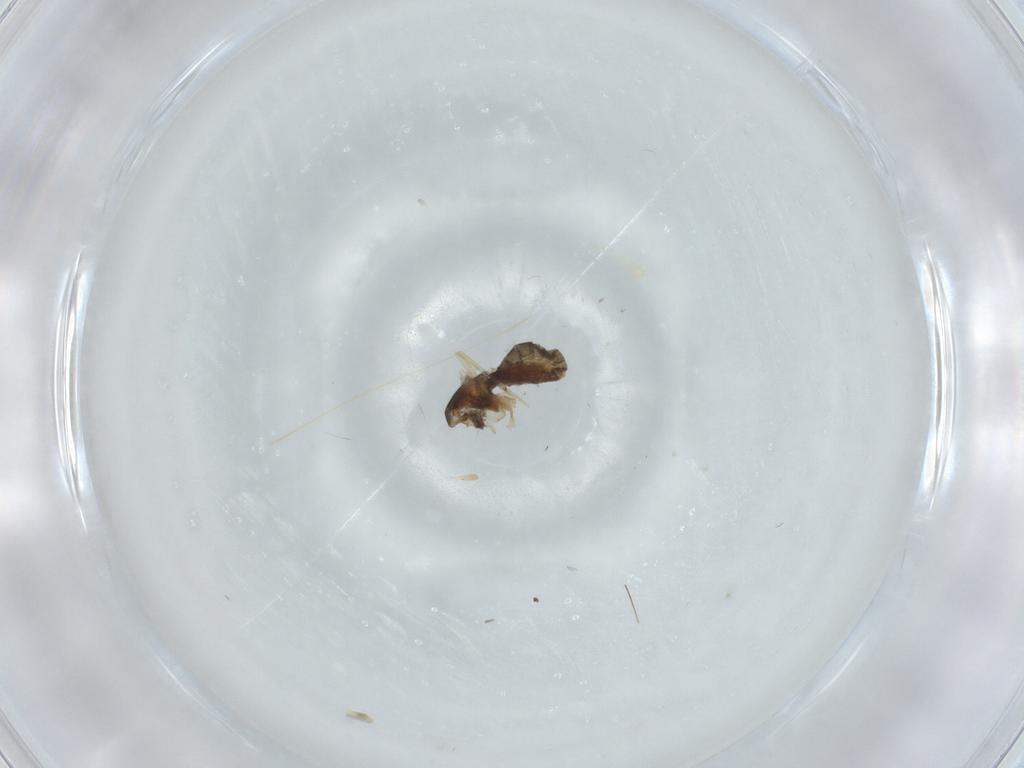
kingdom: Animalia
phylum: Arthropoda
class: Insecta
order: Diptera
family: Chironomidae
